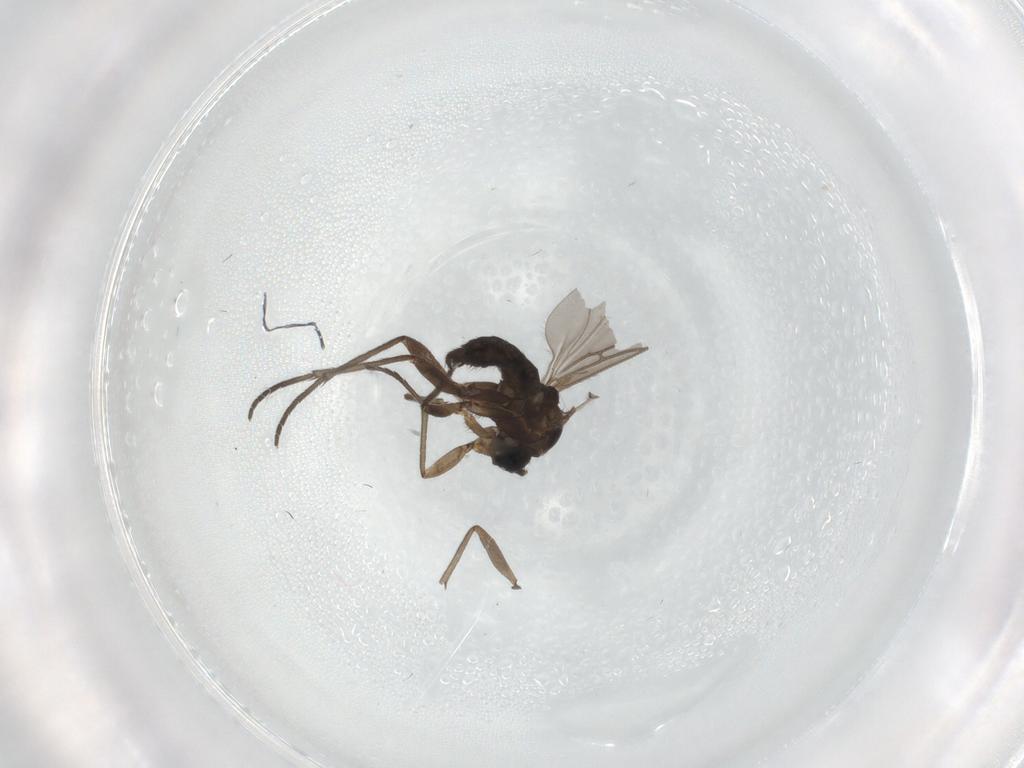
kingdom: Animalia
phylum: Arthropoda
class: Insecta
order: Diptera
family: Sciaridae
